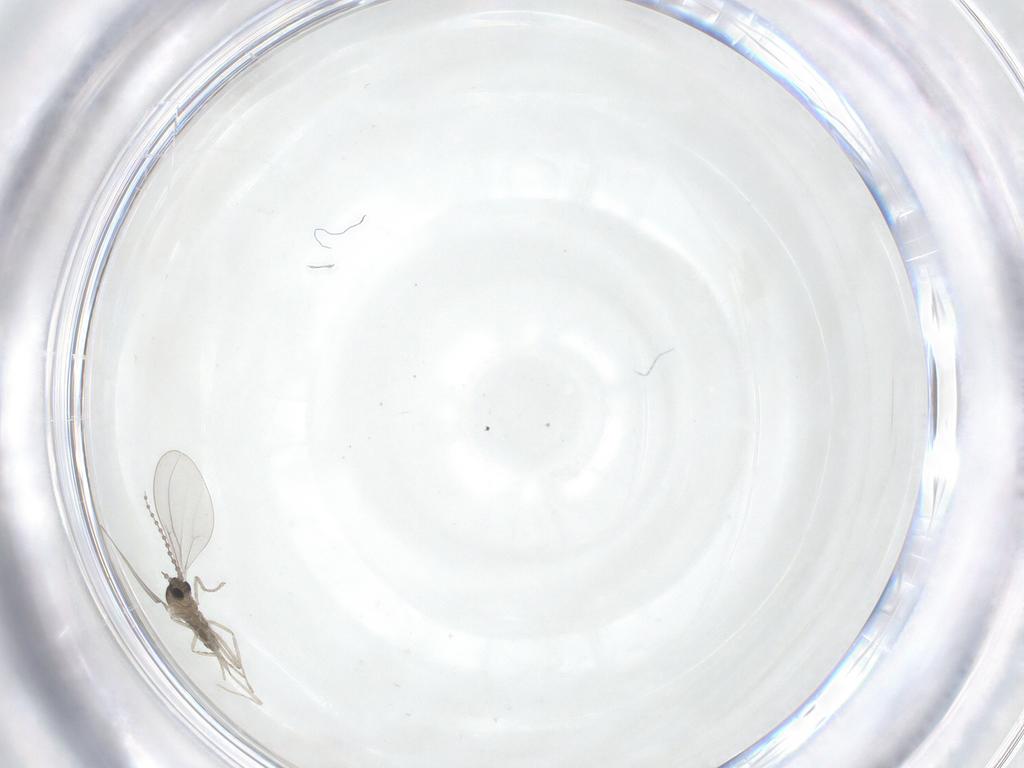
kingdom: Animalia
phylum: Arthropoda
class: Insecta
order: Diptera
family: Cecidomyiidae
